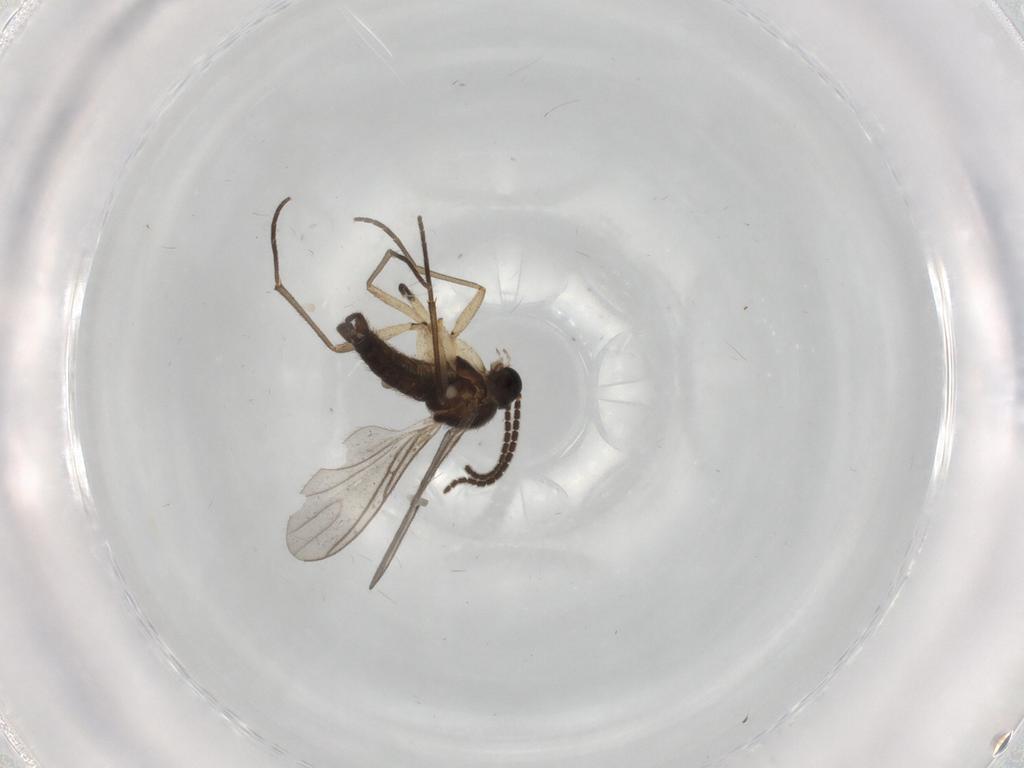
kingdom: Animalia
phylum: Arthropoda
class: Insecta
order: Diptera
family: Sciaridae
